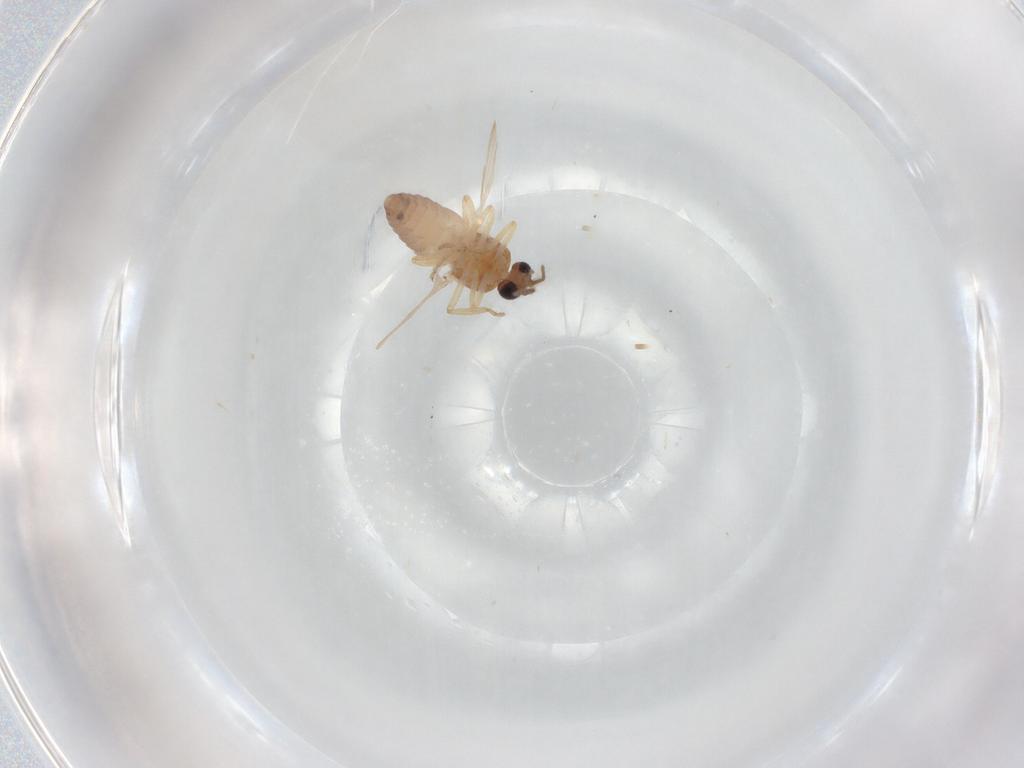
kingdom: Animalia
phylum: Arthropoda
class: Insecta
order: Diptera
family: Ceratopogonidae
